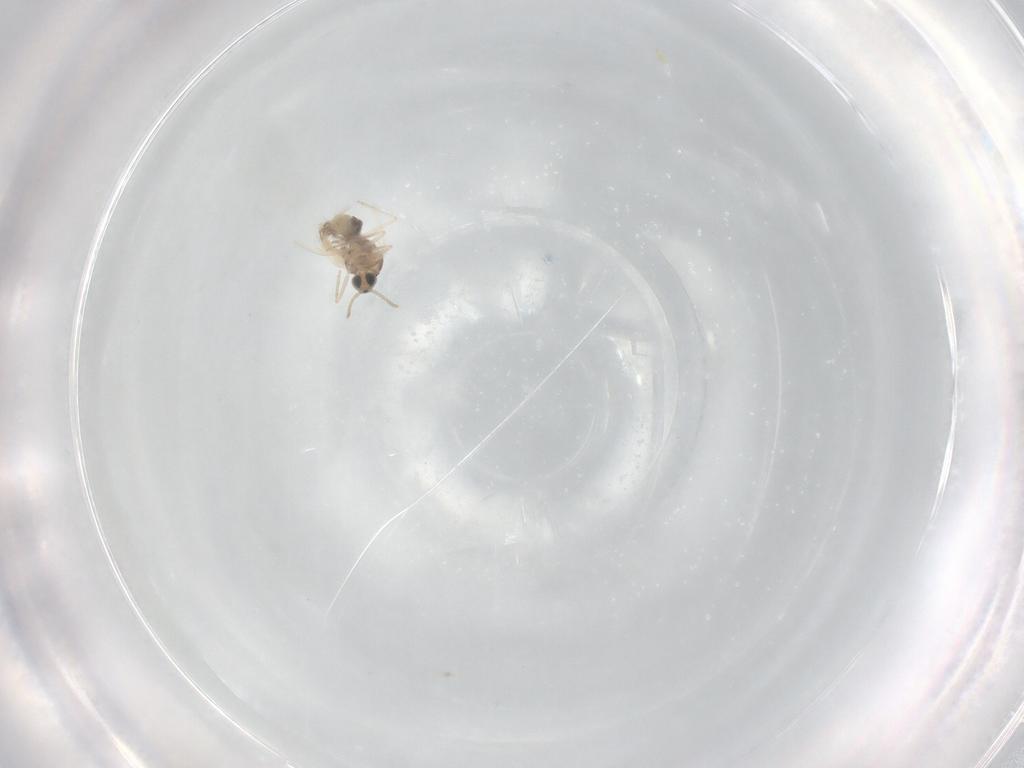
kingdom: Animalia
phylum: Arthropoda
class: Insecta
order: Diptera
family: Cecidomyiidae
